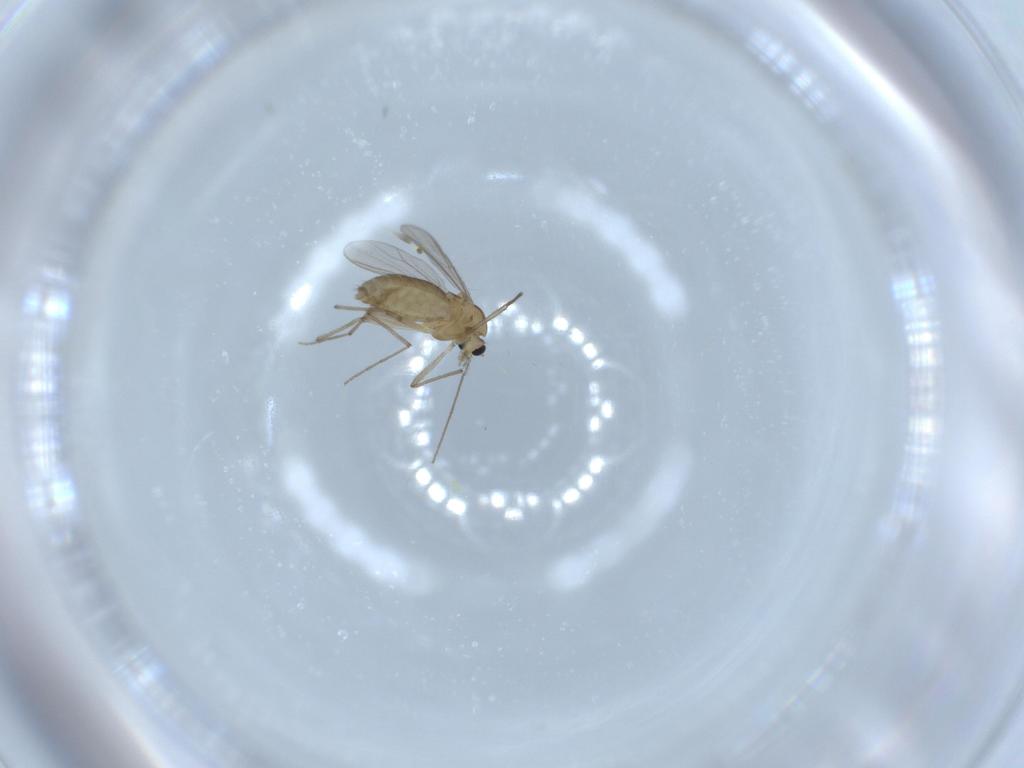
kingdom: Animalia
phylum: Arthropoda
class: Insecta
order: Diptera
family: Chironomidae
